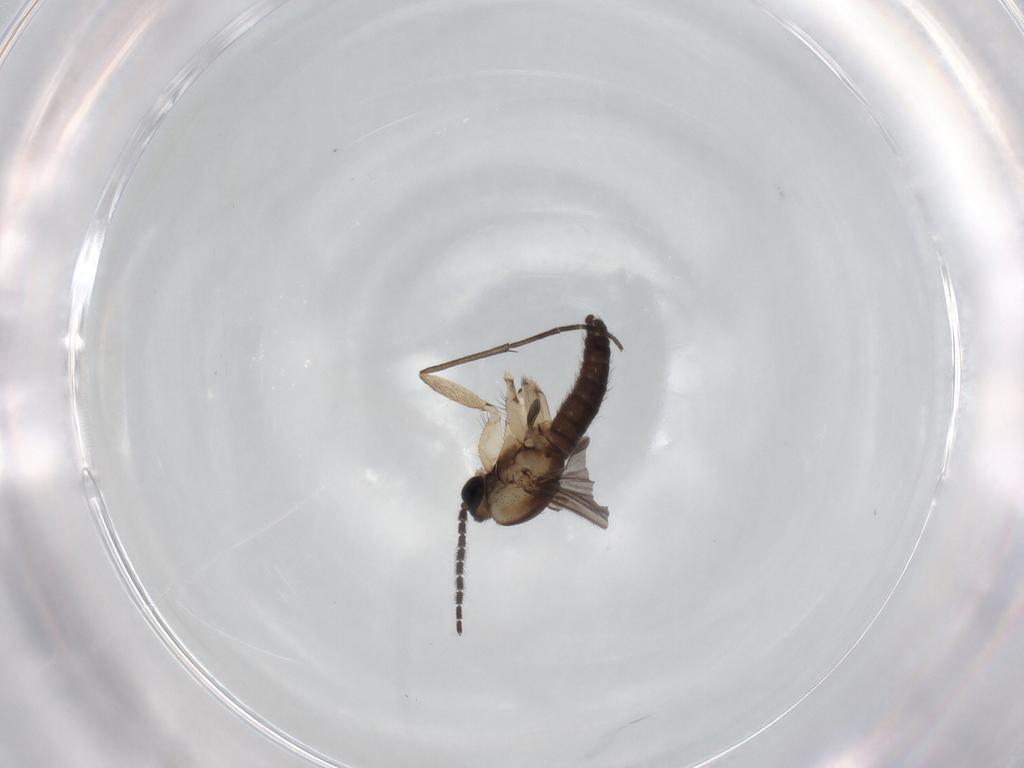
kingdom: Animalia
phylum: Arthropoda
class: Insecta
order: Diptera
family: Sciaridae
